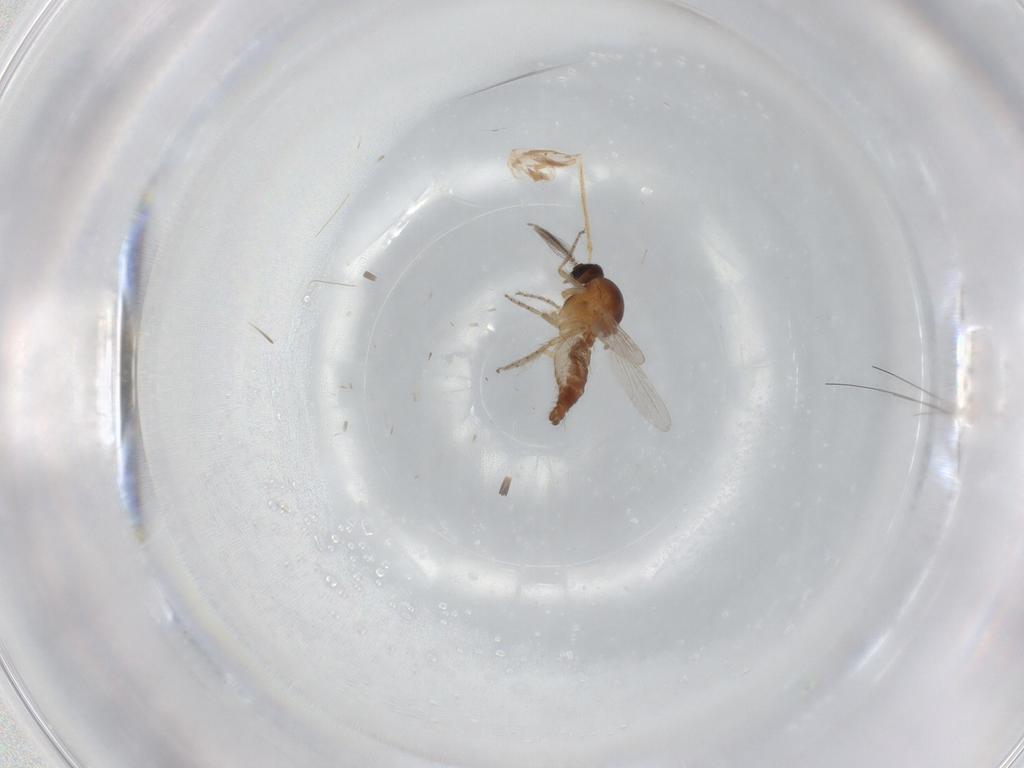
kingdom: Animalia
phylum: Arthropoda
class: Insecta
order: Diptera
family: Ceratopogonidae
